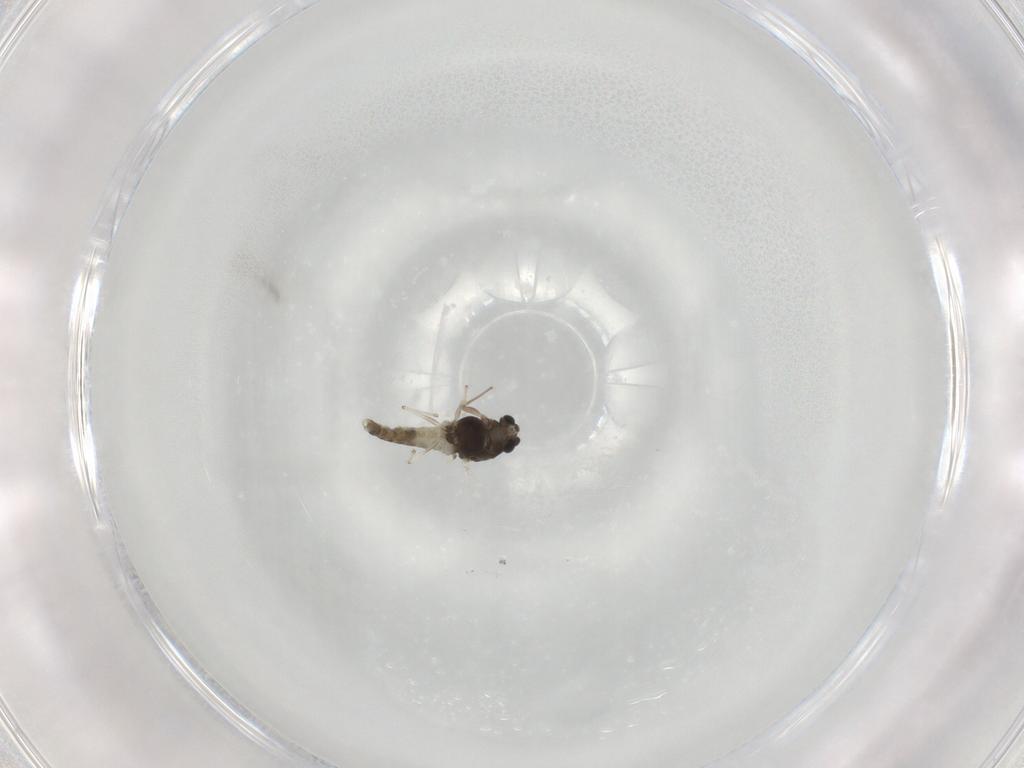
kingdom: Animalia
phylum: Arthropoda
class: Insecta
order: Diptera
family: Chironomidae
